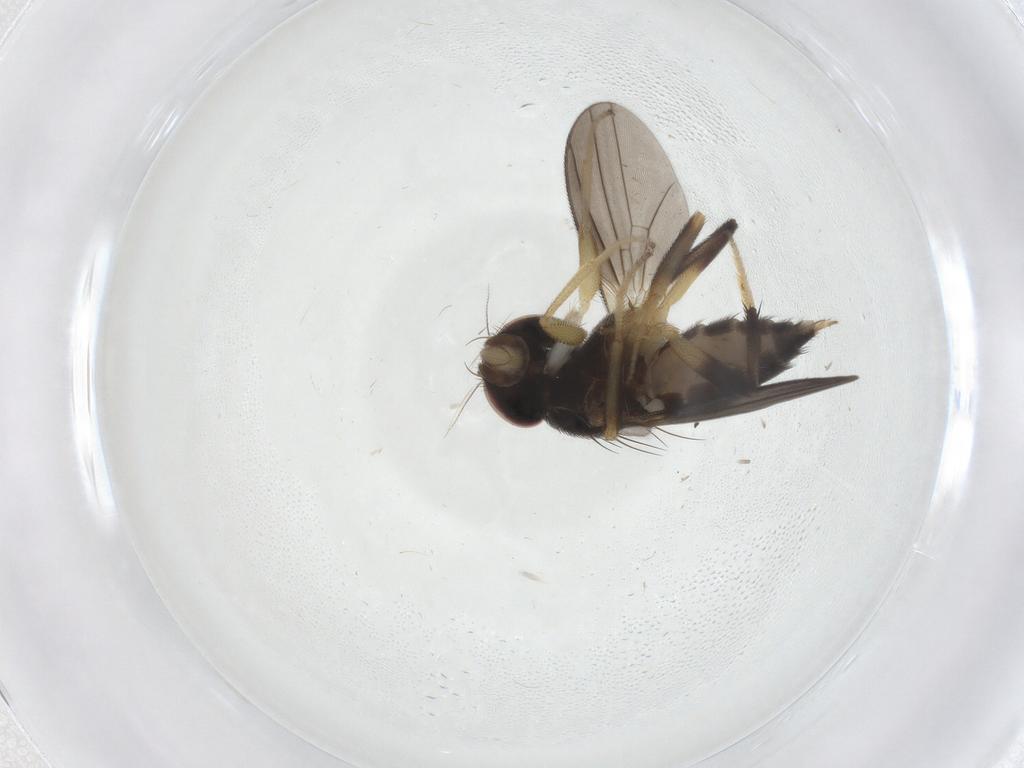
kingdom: Animalia
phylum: Arthropoda
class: Insecta
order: Diptera
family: Clusiidae
